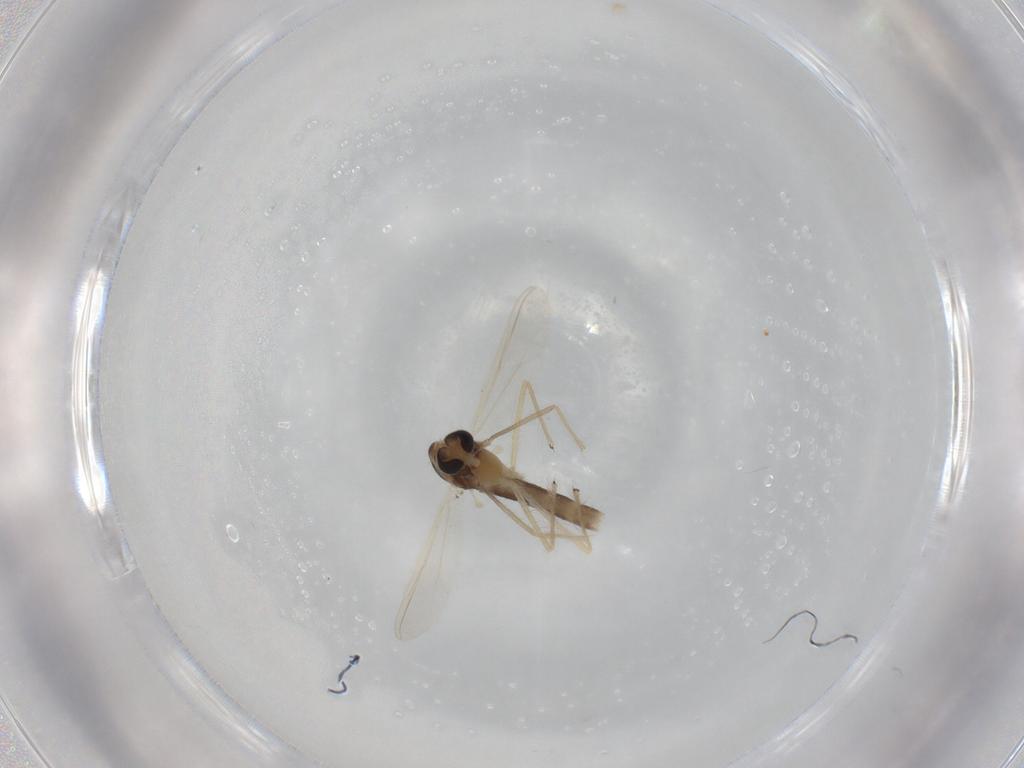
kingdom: Animalia
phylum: Arthropoda
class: Insecta
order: Diptera
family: Chironomidae
